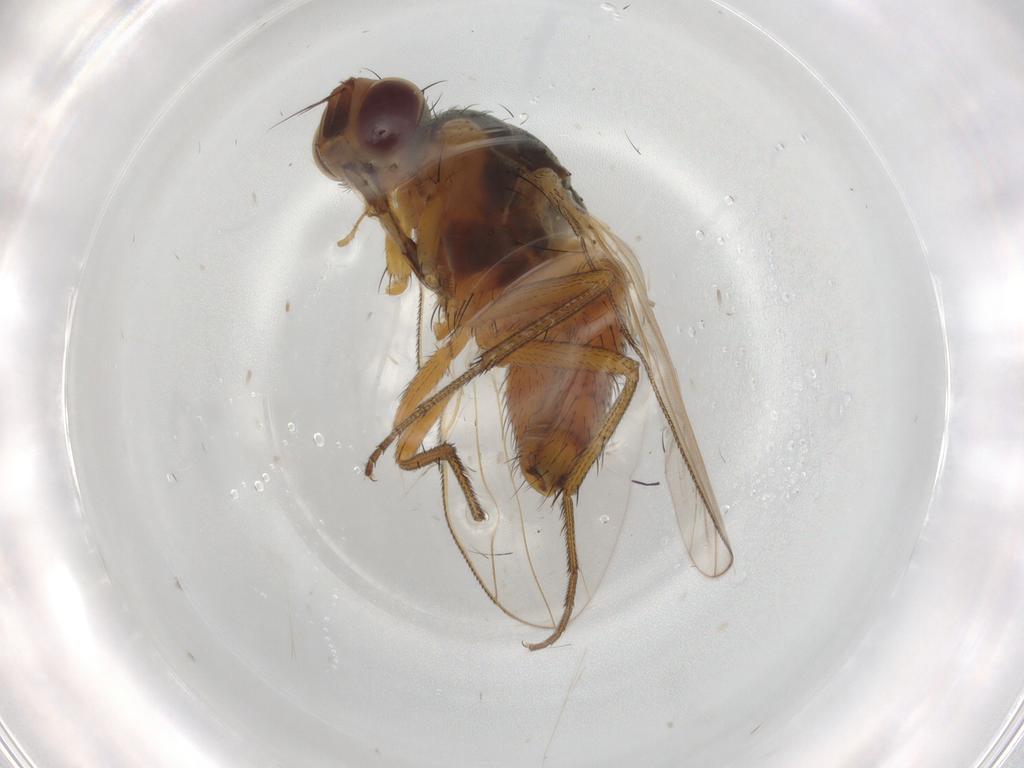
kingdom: Animalia
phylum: Arthropoda
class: Insecta
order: Diptera
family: Muscidae
